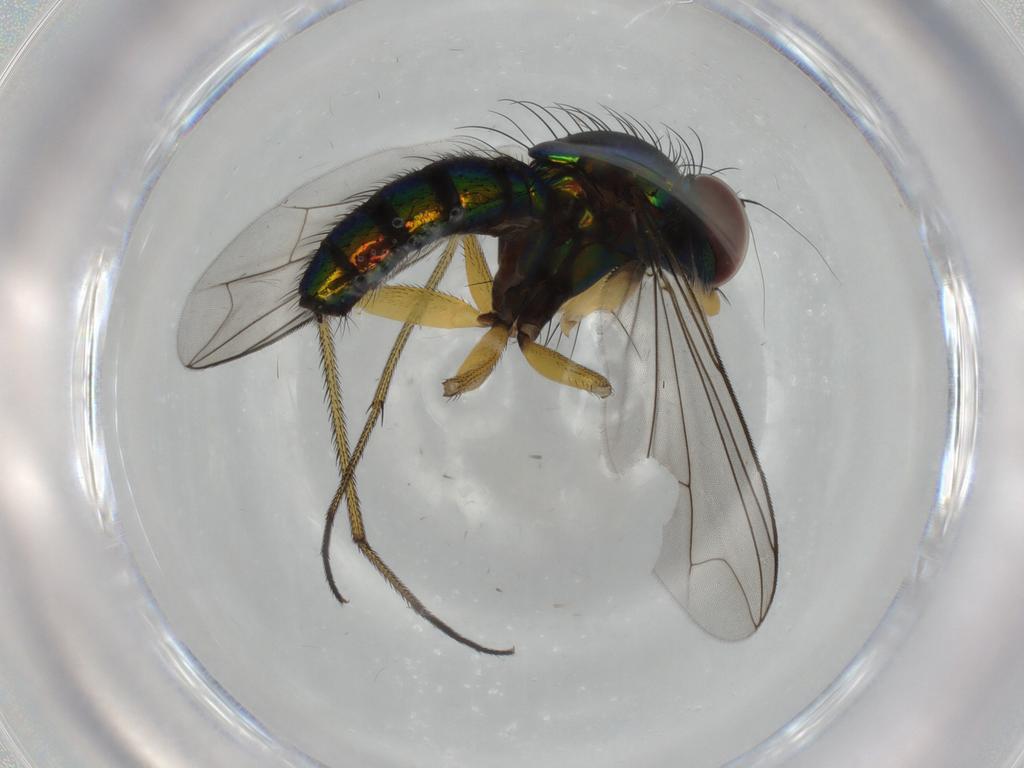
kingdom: Animalia
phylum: Arthropoda
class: Insecta
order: Diptera
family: Dolichopodidae
